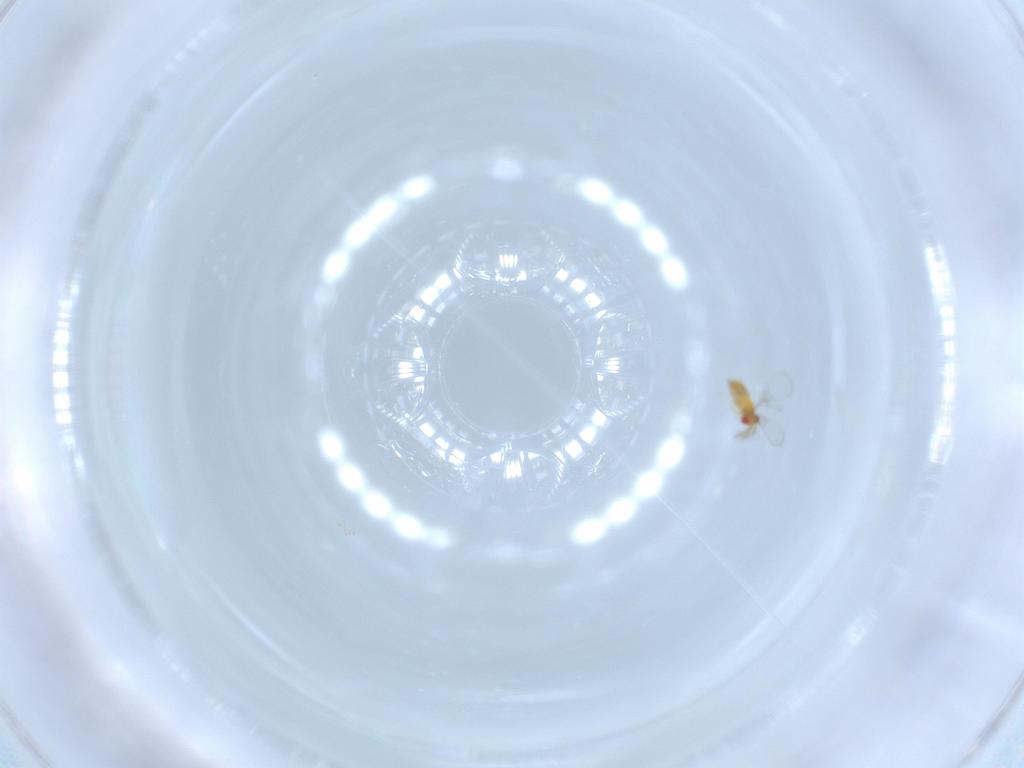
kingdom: Animalia
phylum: Arthropoda
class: Insecta
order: Hymenoptera
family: Trichogrammatidae
